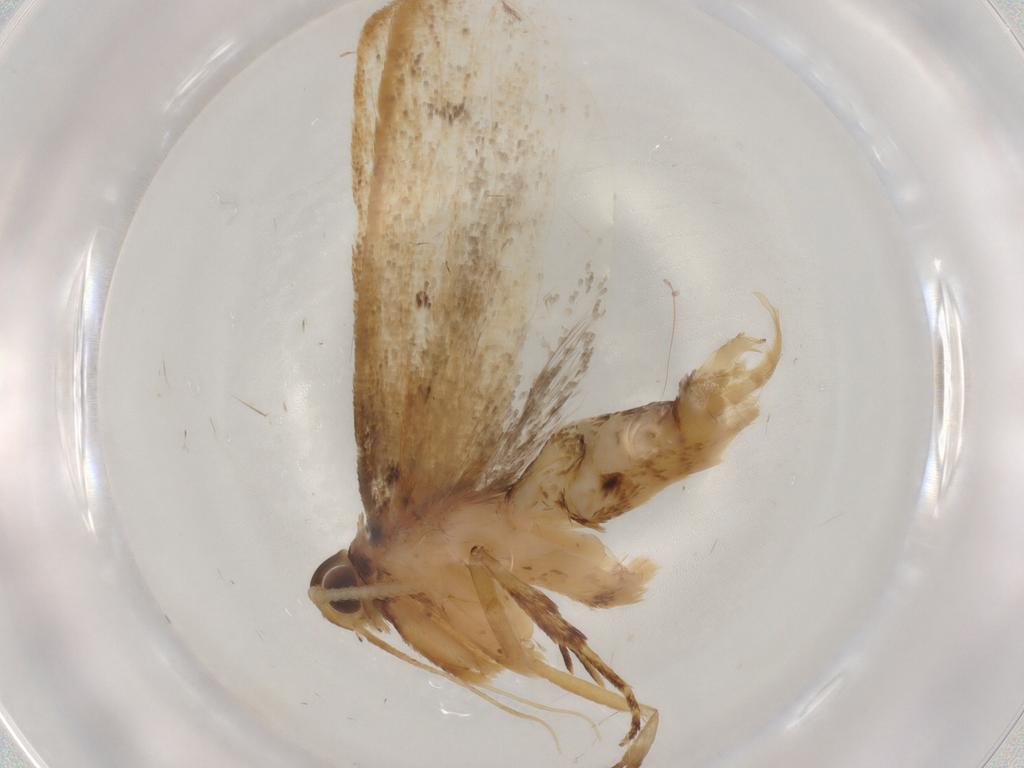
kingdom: Animalia
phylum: Arthropoda
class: Insecta
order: Lepidoptera
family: Lecithoceridae
